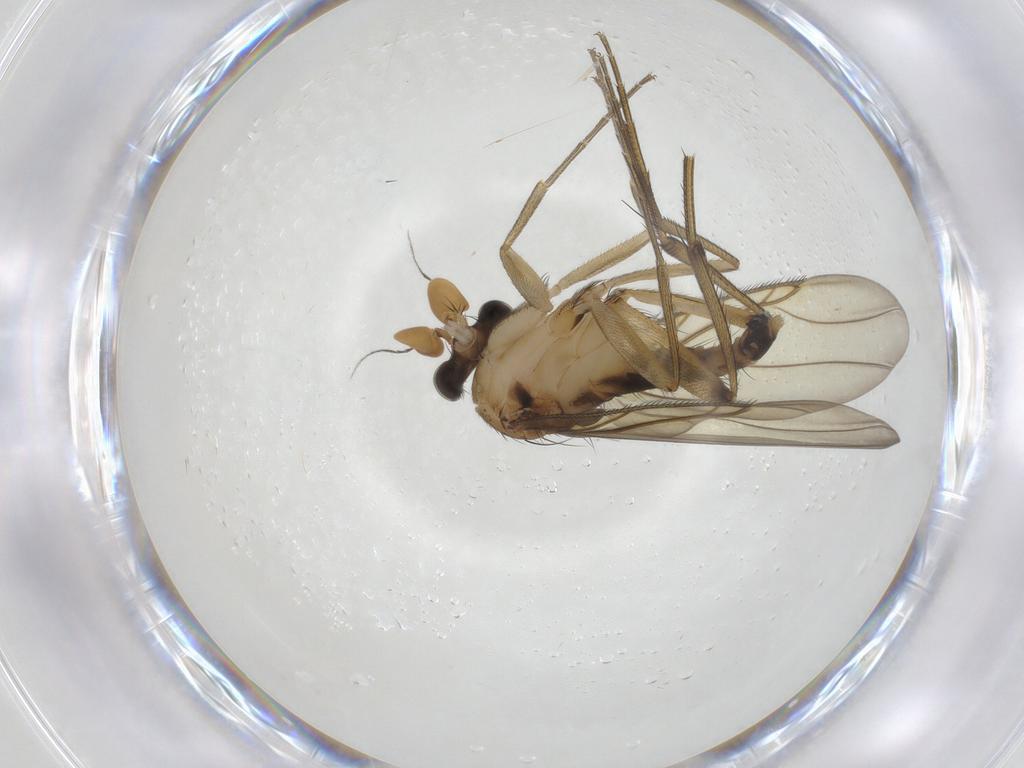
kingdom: Animalia
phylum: Arthropoda
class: Insecta
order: Diptera
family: Phoridae
